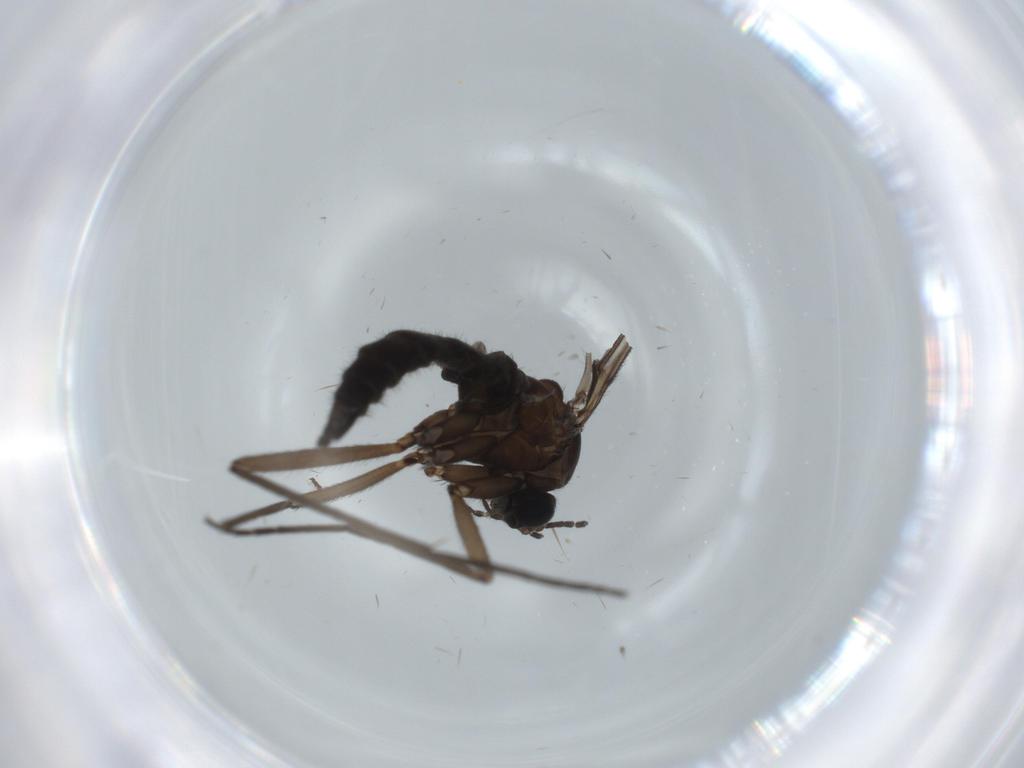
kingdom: Animalia
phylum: Arthropoda
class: Insecta
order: Diptera
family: Sciaridae
